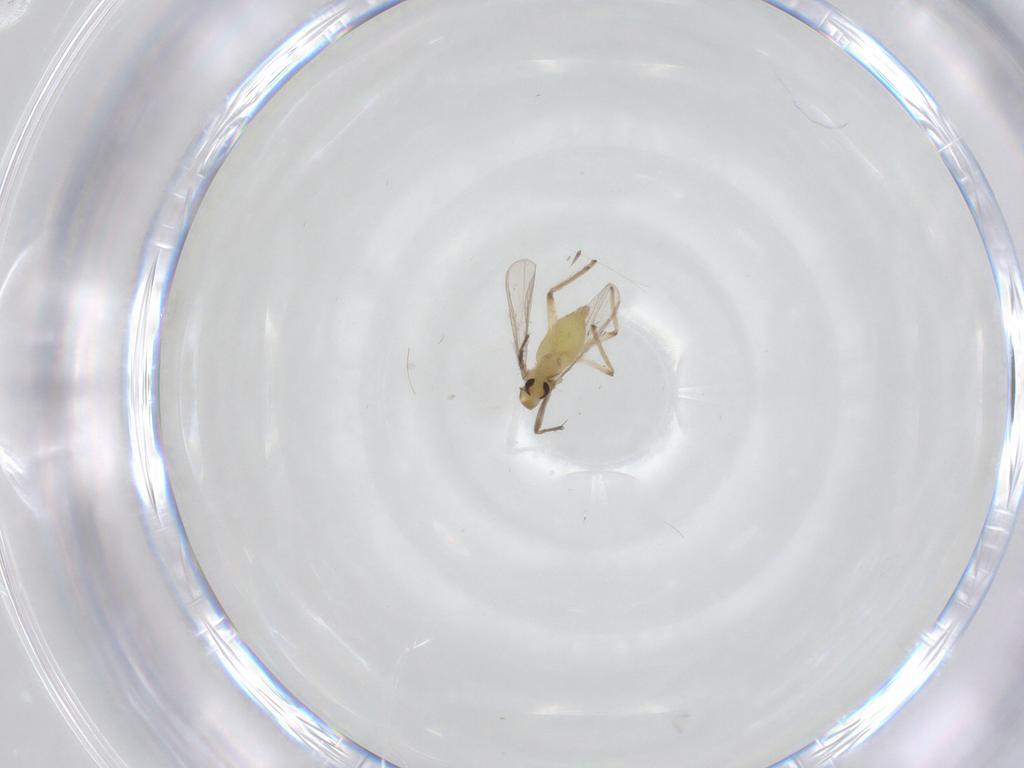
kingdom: Animalia
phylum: Arthropoda
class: Insecta
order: Diptera
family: Chironomidae
